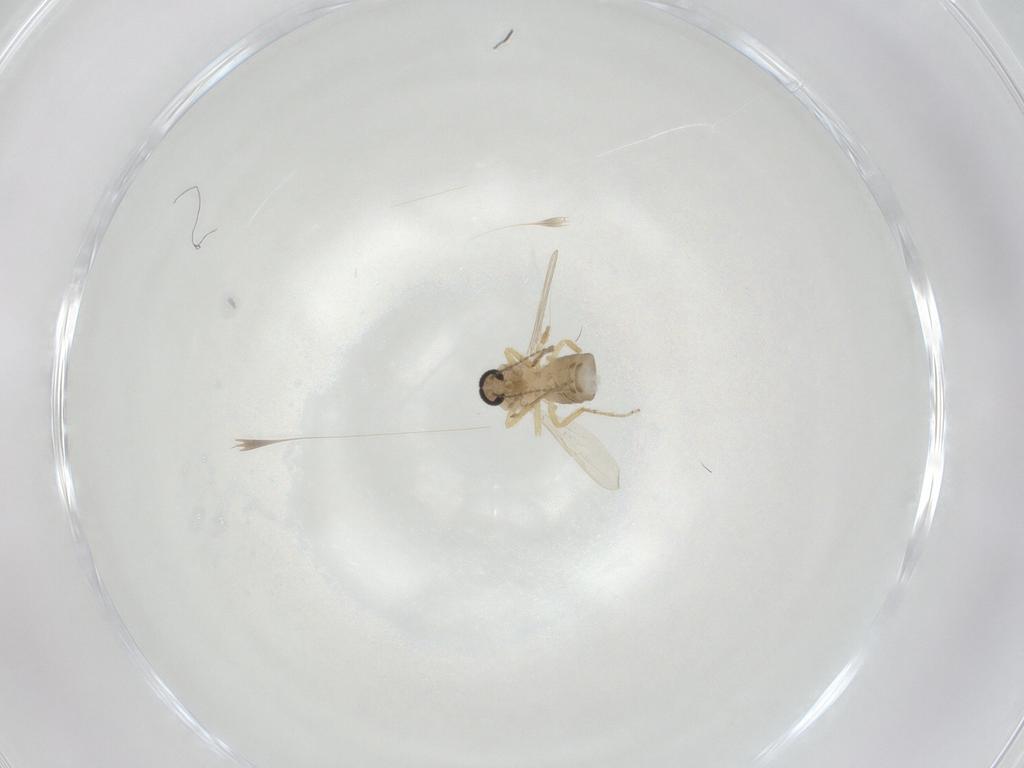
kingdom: Animalia
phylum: Arthropoda
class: Insecta
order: Diptera
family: Ceratopogonidae
